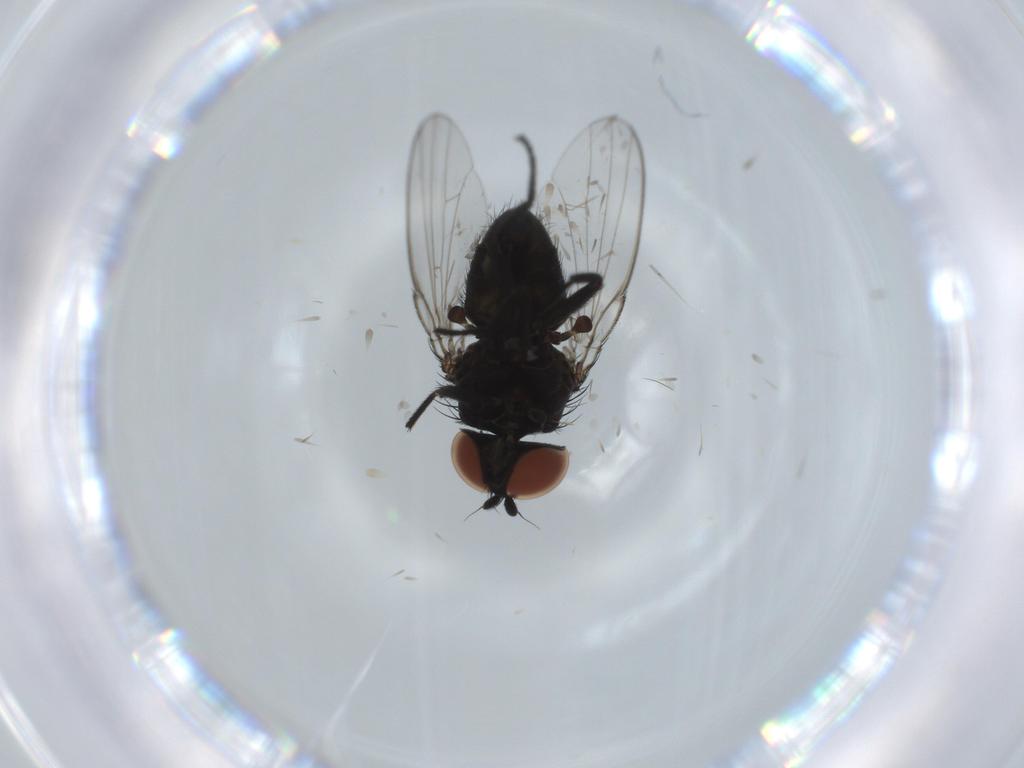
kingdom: Animalia
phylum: Arthropoda
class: Insecta
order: Diptera
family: Milichiidae
